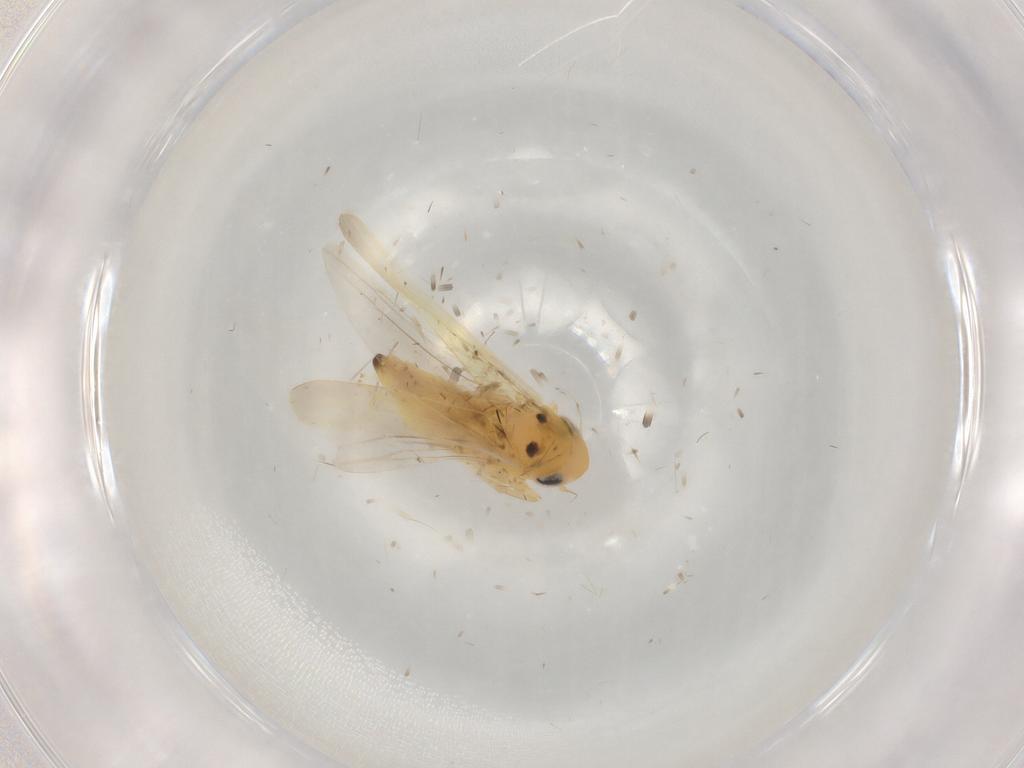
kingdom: Animalia
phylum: Arthropoda
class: Insecta
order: Hemiptera
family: Cicadellidae
